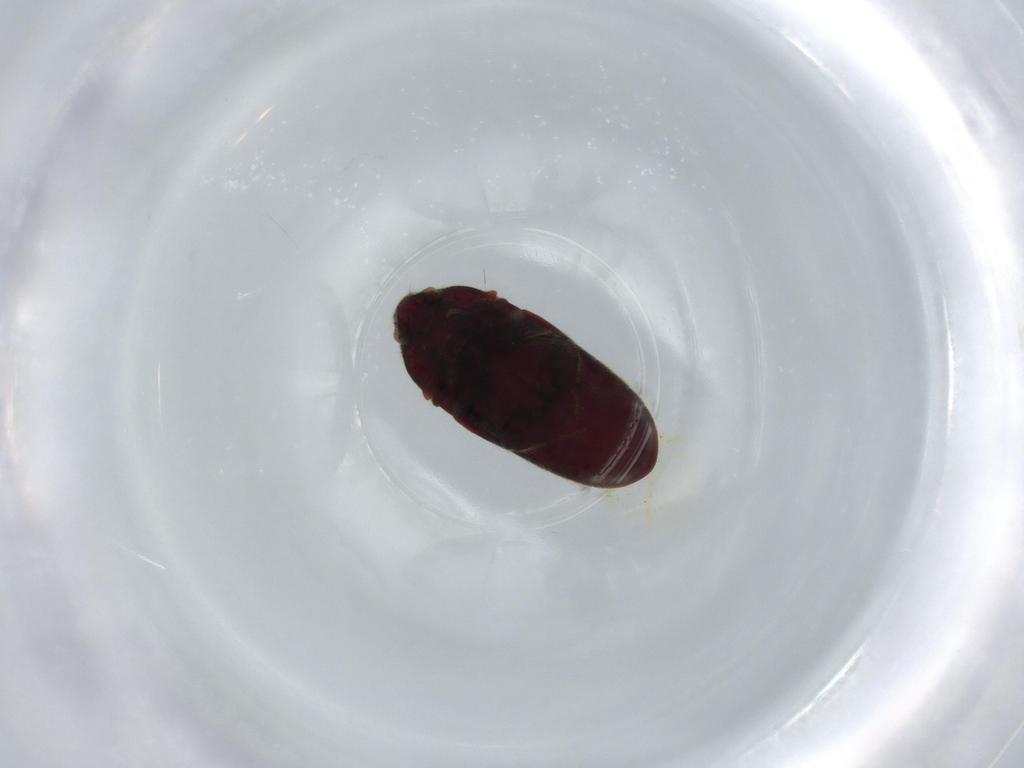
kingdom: Animalia
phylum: Arthropoda
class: Insecta
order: Coleoptera
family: Throscidae
